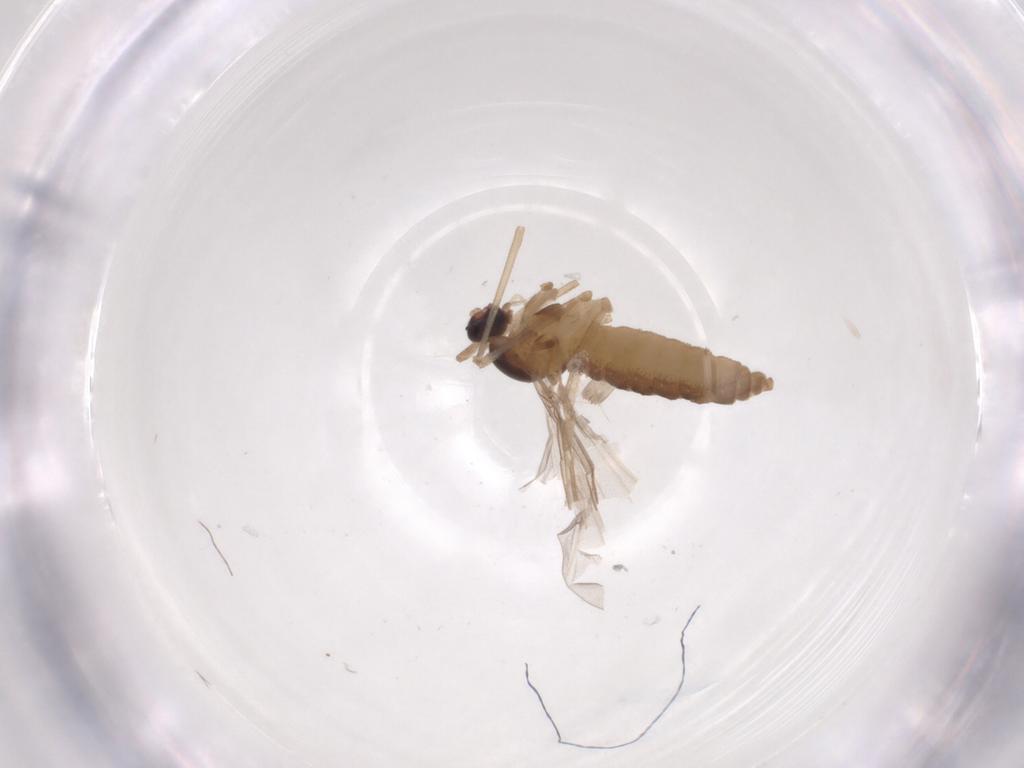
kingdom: Animalia
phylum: Arthropoda
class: Insecta
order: Diptera
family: Cecidomyiidae
